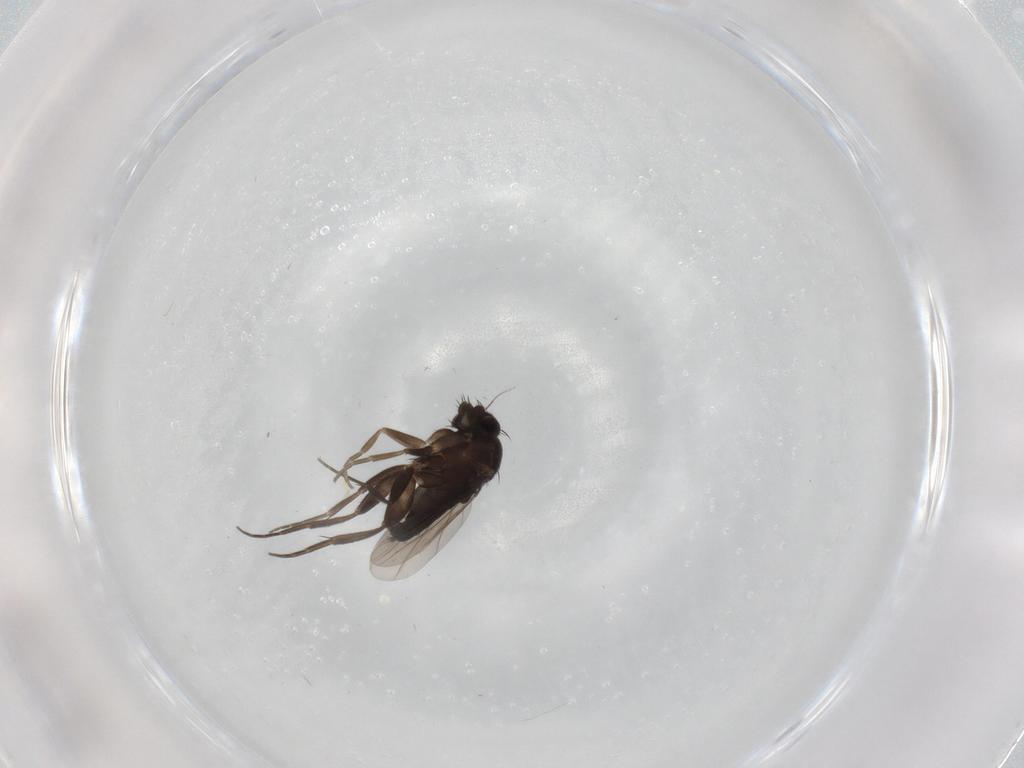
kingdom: Animalia
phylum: Arthropoda
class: Insecta
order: Diptera
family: Phoridae
